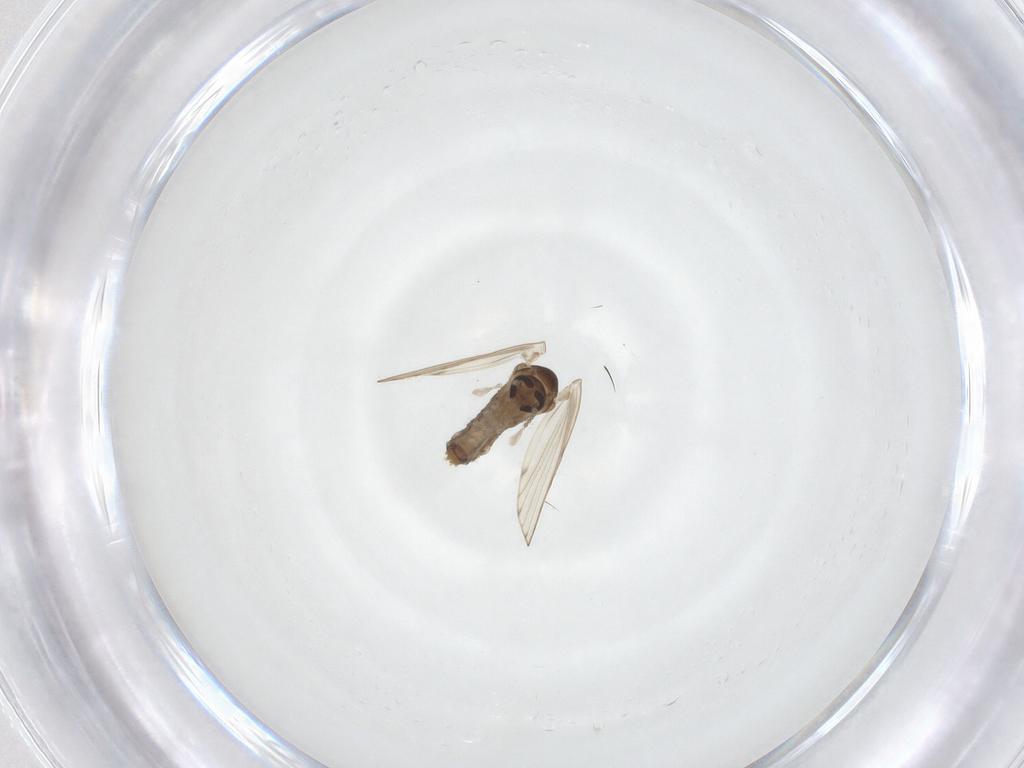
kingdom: Animalia
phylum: Arthropoda
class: Insecta
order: Diptera
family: Psychodidae
